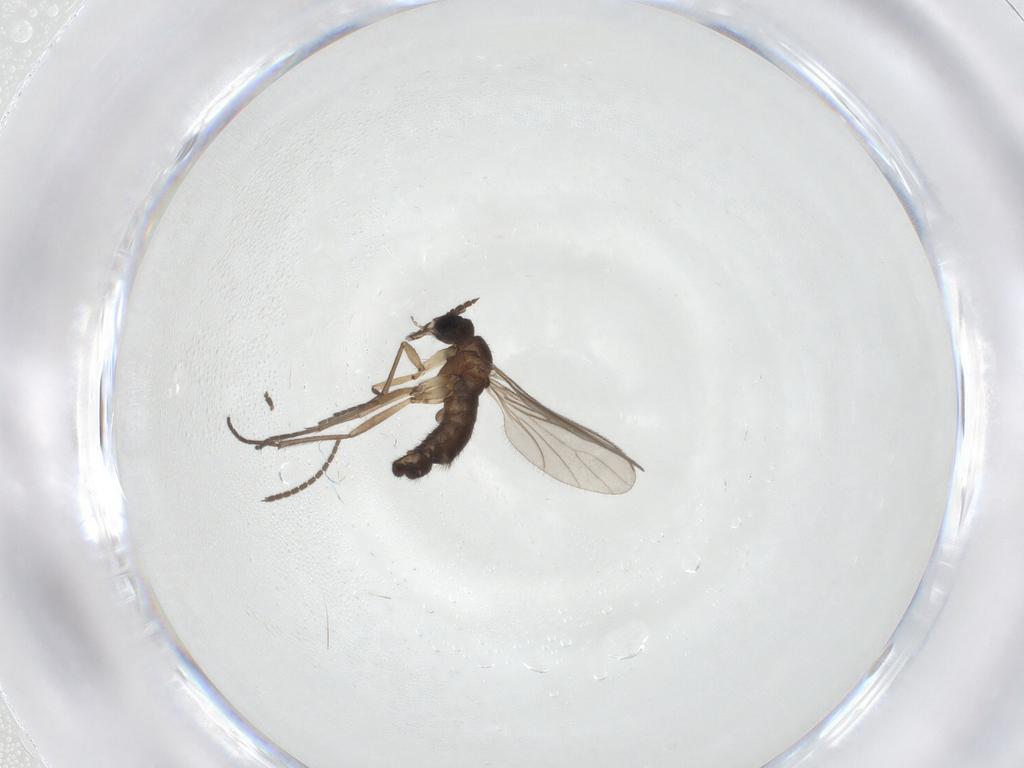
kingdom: Animalia
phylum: Arthropoda
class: Insecta
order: Diptera
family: Sciaridae
